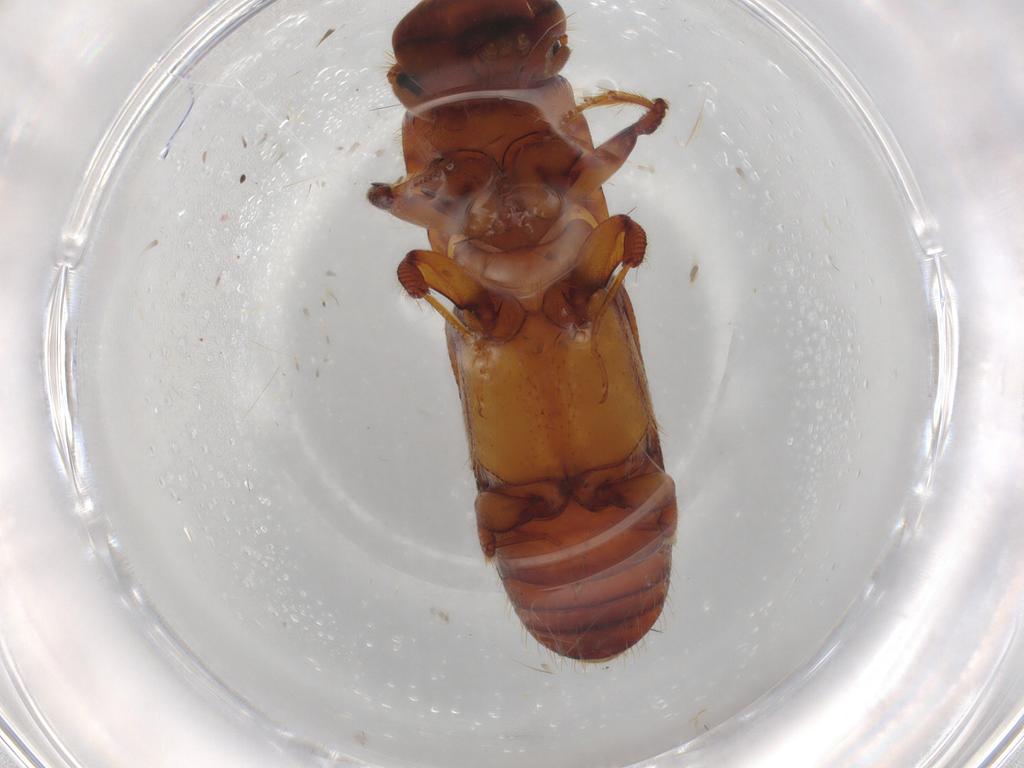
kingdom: Animalia
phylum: Arthropoda
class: Insecta
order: Coleoptera
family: Curculionidae
